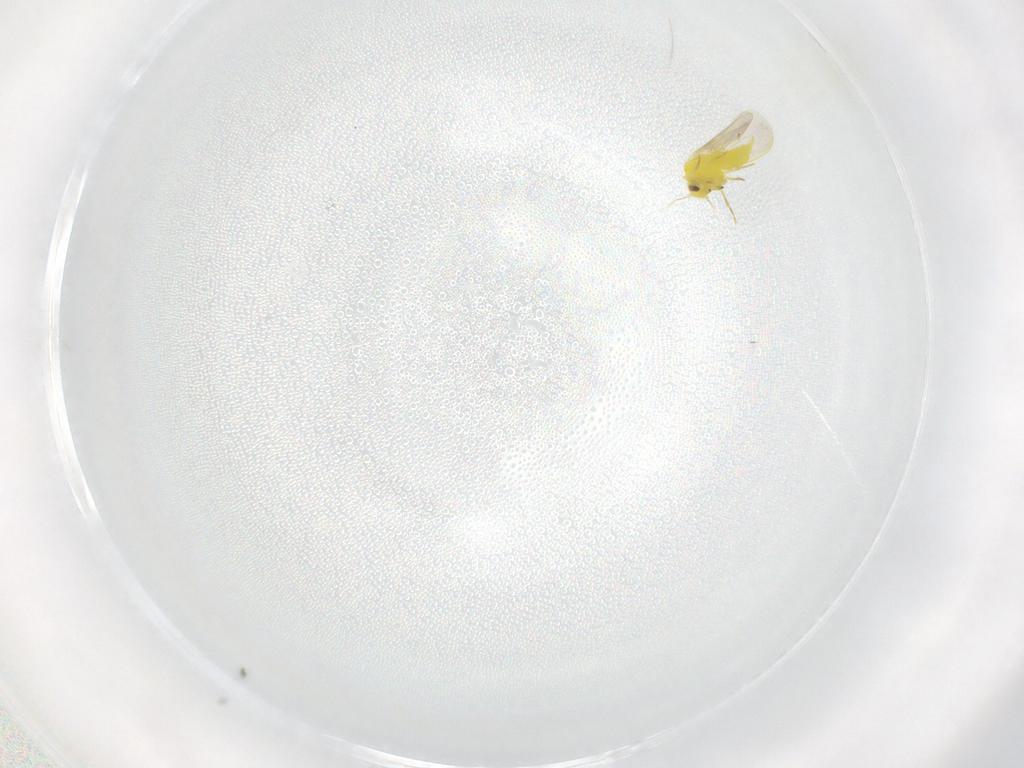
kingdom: Animalia
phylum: Arthropoda
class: Insecta
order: Hemiptera
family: Aleyrodidae
